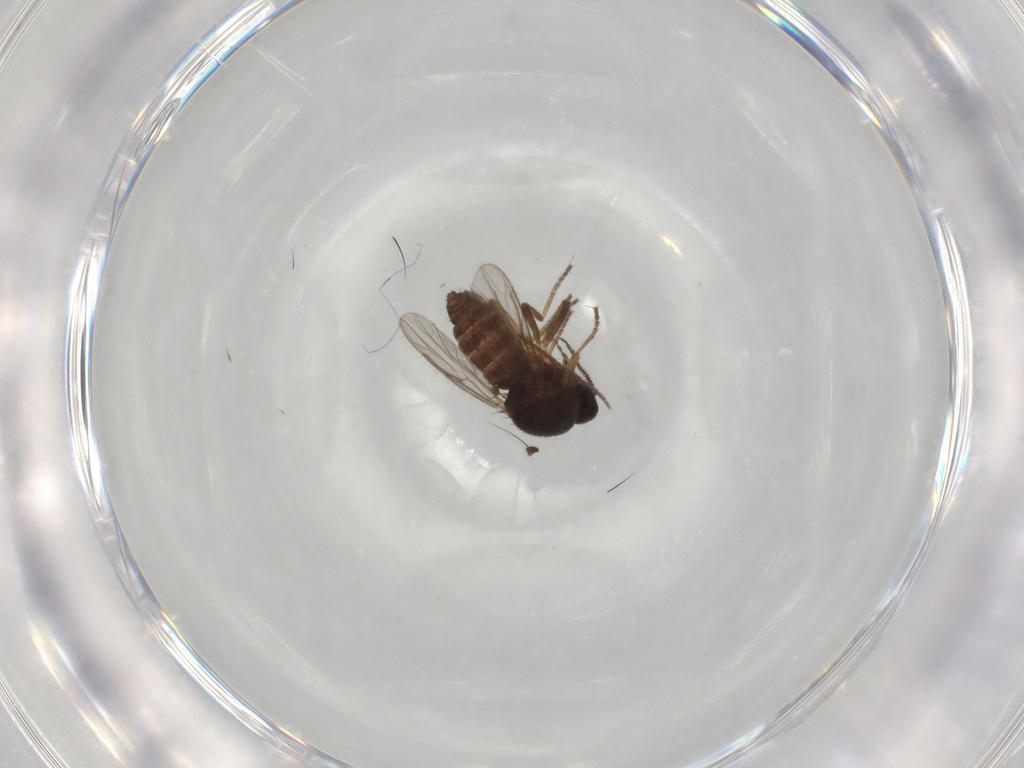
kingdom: Animalia
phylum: Arthropoda
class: Insecta
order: Diptera
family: Ceratopogonidae
